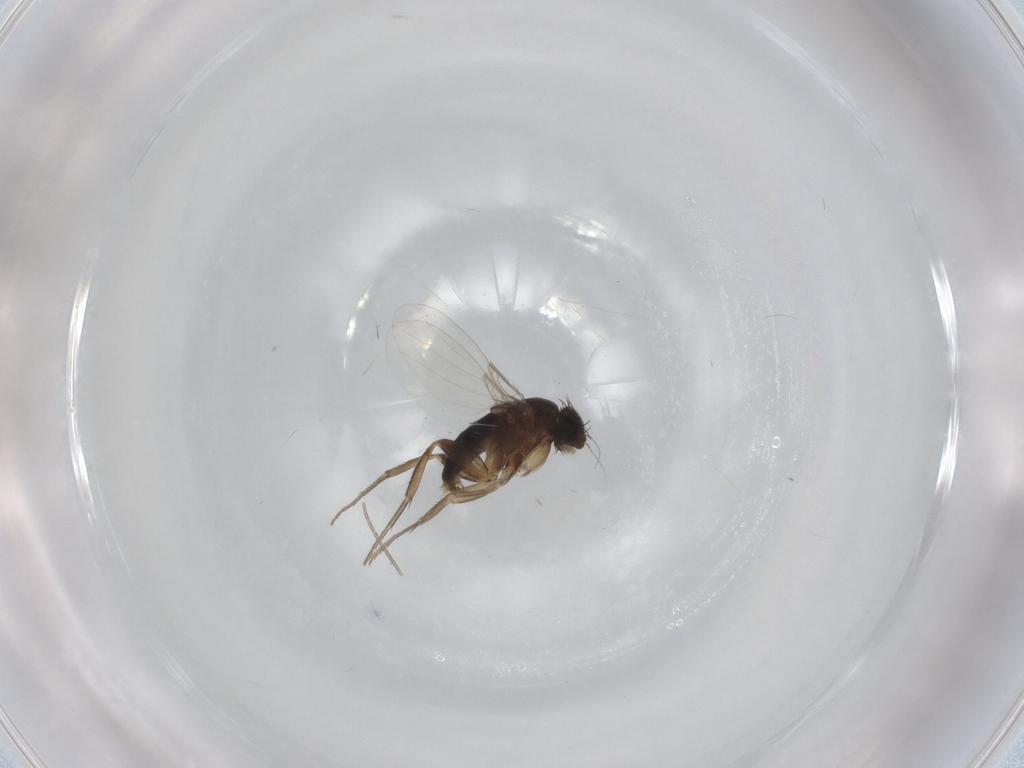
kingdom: Animalia
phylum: Arthropoda
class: Insecta
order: Diptera
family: Phoridae
